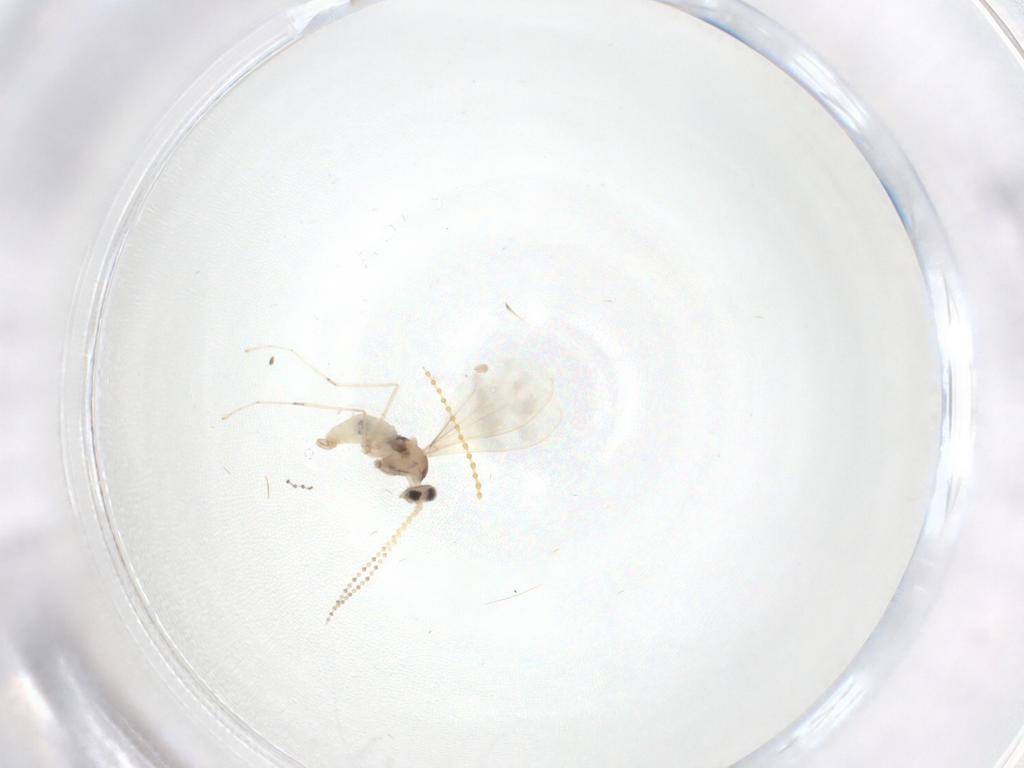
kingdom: Animalia
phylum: Arthropoda
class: Insecta
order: Diptera
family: Cecidomyiidae
